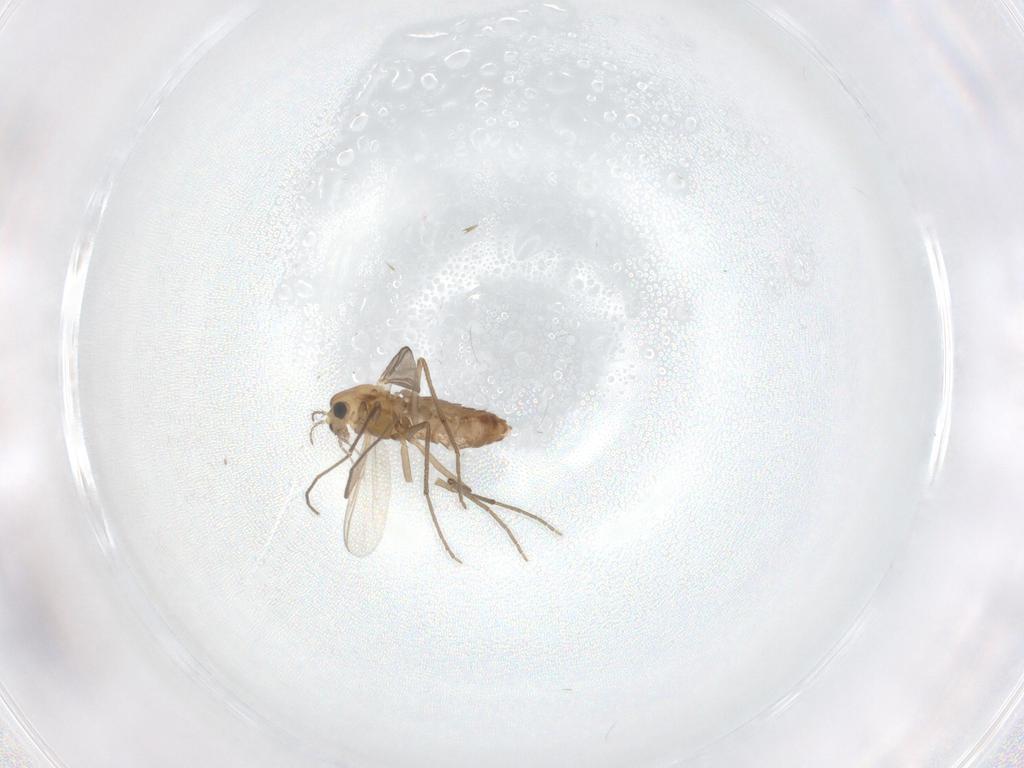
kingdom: Animalia
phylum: Arthropoda
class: Insecta
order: Diptera
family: Chironomidae
